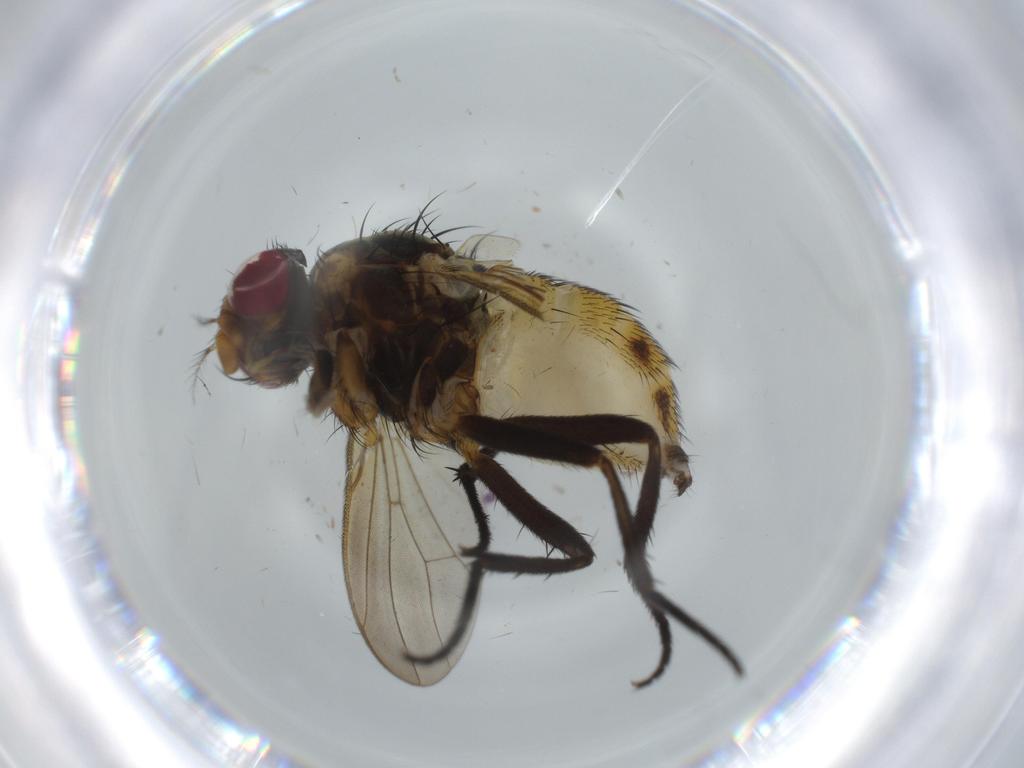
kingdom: Animalia
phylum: Arthropoda
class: Insecta
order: Diptera
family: Anthomyiidae
